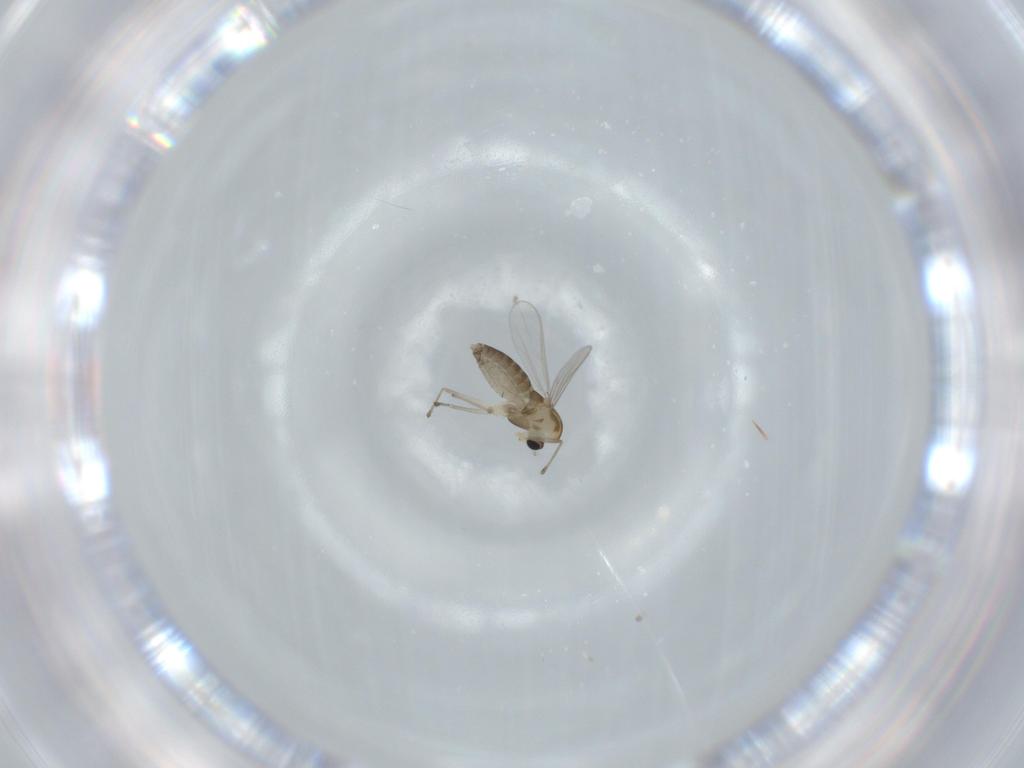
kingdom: Animalia
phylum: Arthropoda
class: Insecta
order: Diptera
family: Chironomidae
